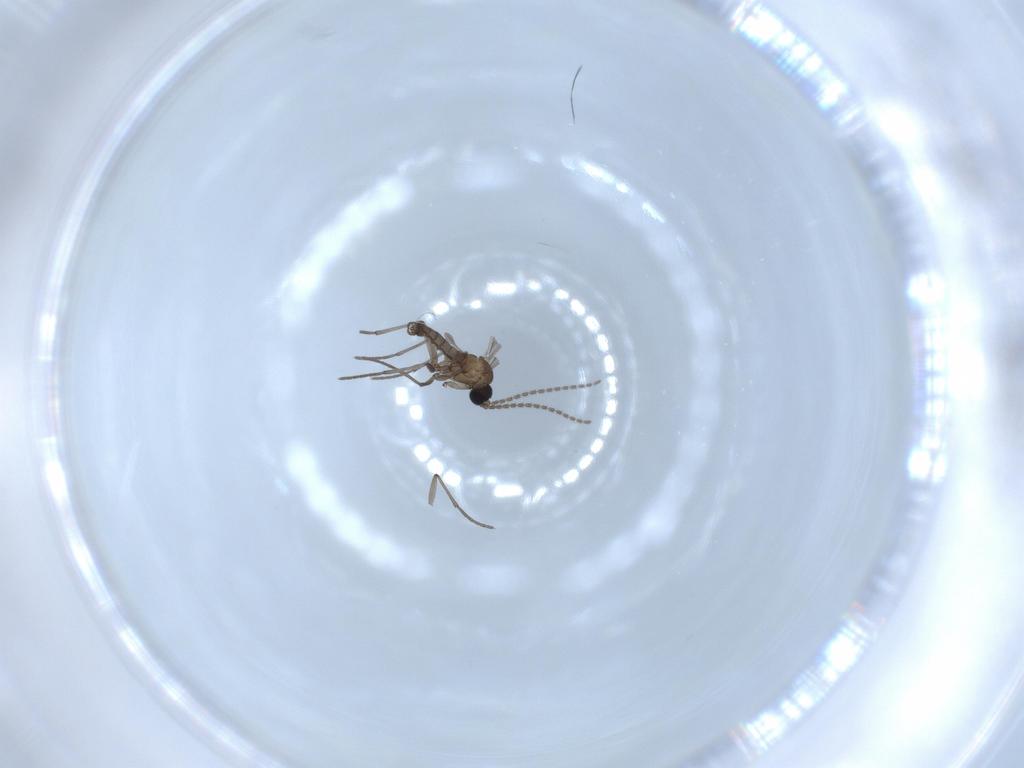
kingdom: Animalia
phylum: Arthropoda
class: Insecta
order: Diptera
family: Sciaridae
